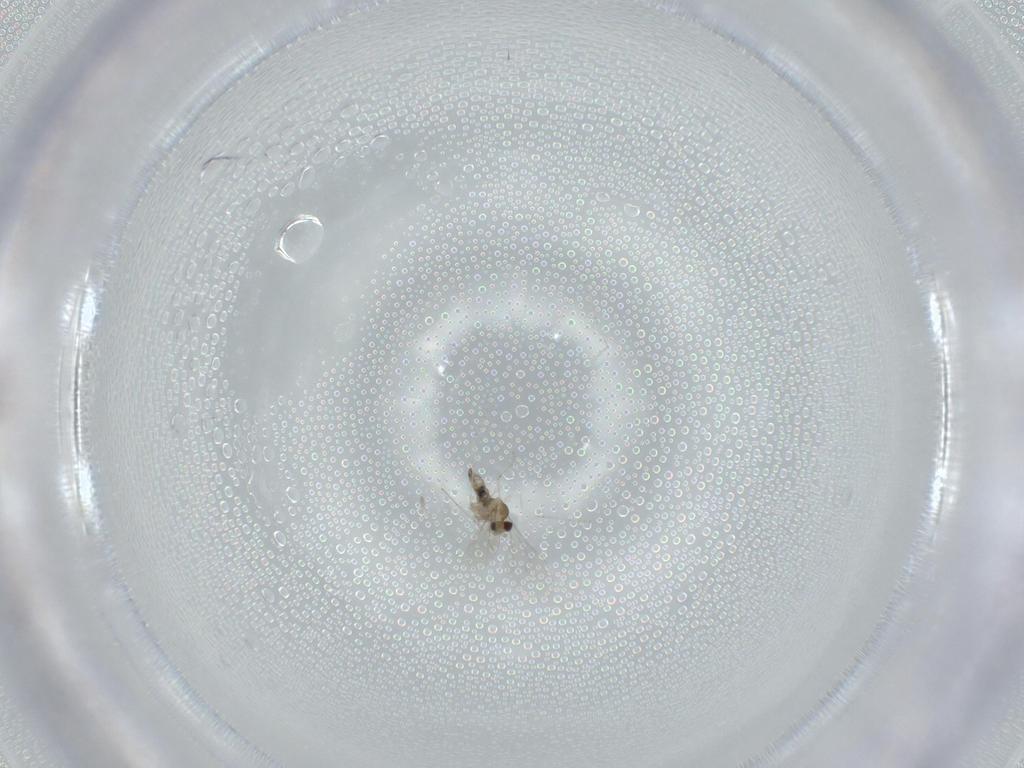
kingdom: Animalia
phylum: Arthropoda
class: Insecta
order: Diptera
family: Cecidomyiidae
